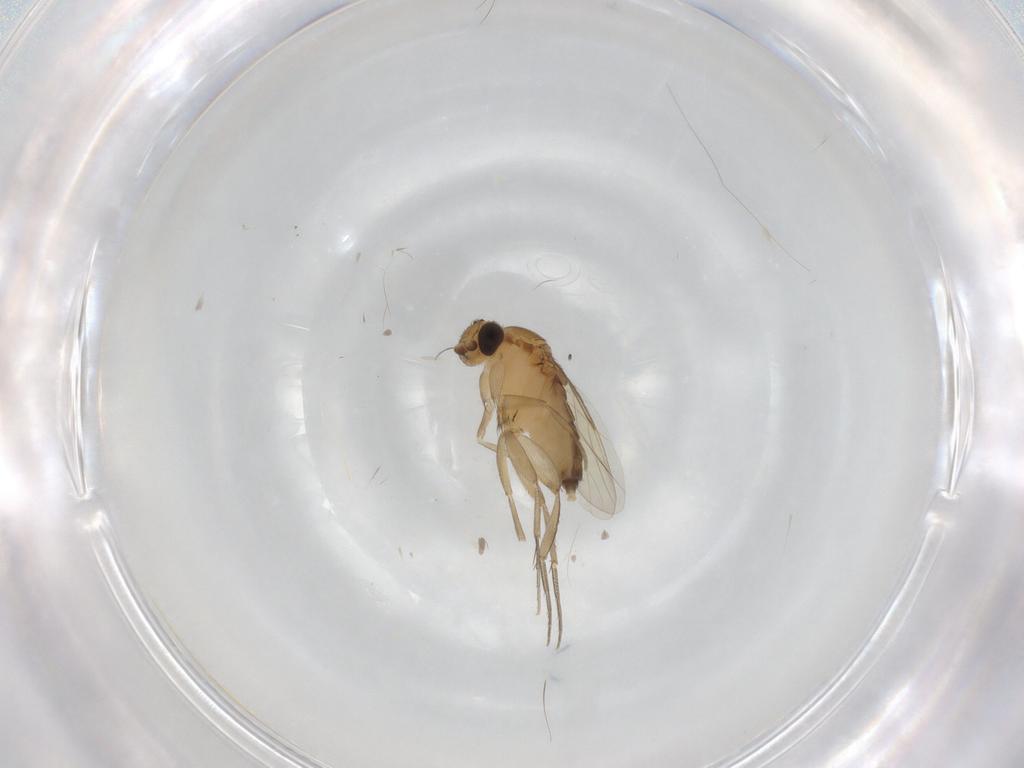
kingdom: Animalia
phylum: Arthropoda
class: Insecta
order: Diptera
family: Phoridae
